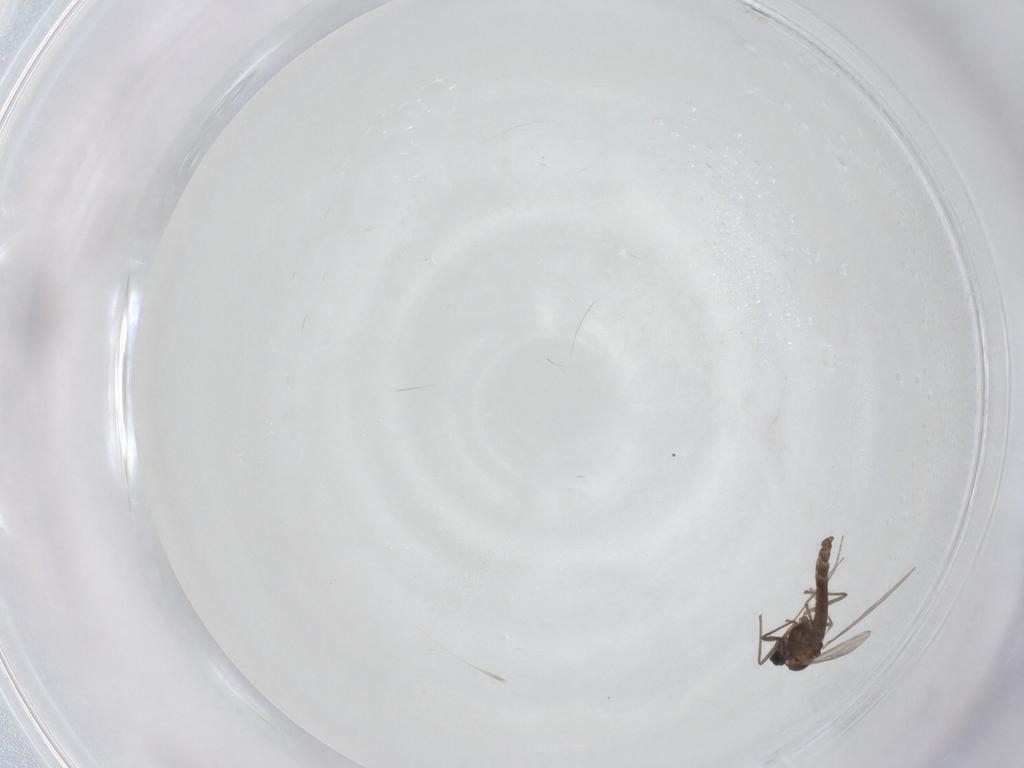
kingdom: Animalia
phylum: Arthropoda
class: Insecta
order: Diptera
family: Chironomidae
